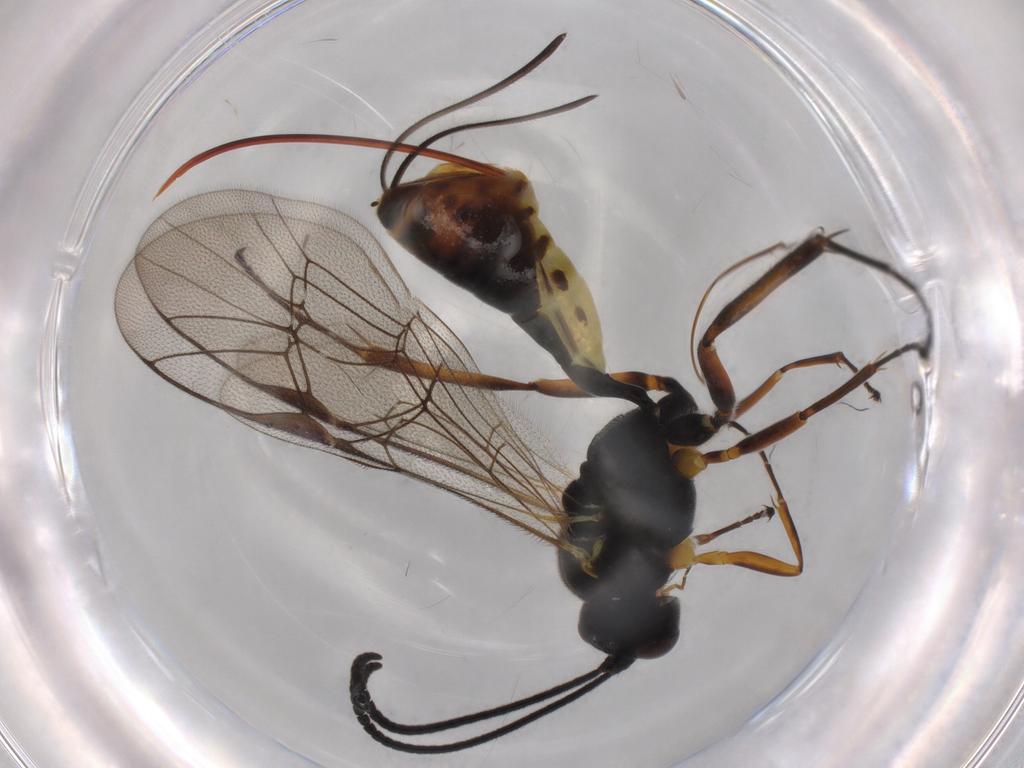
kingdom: Animalia
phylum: Arthropoda
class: Insecta
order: Hymenoptera
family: Ichneumonidae
